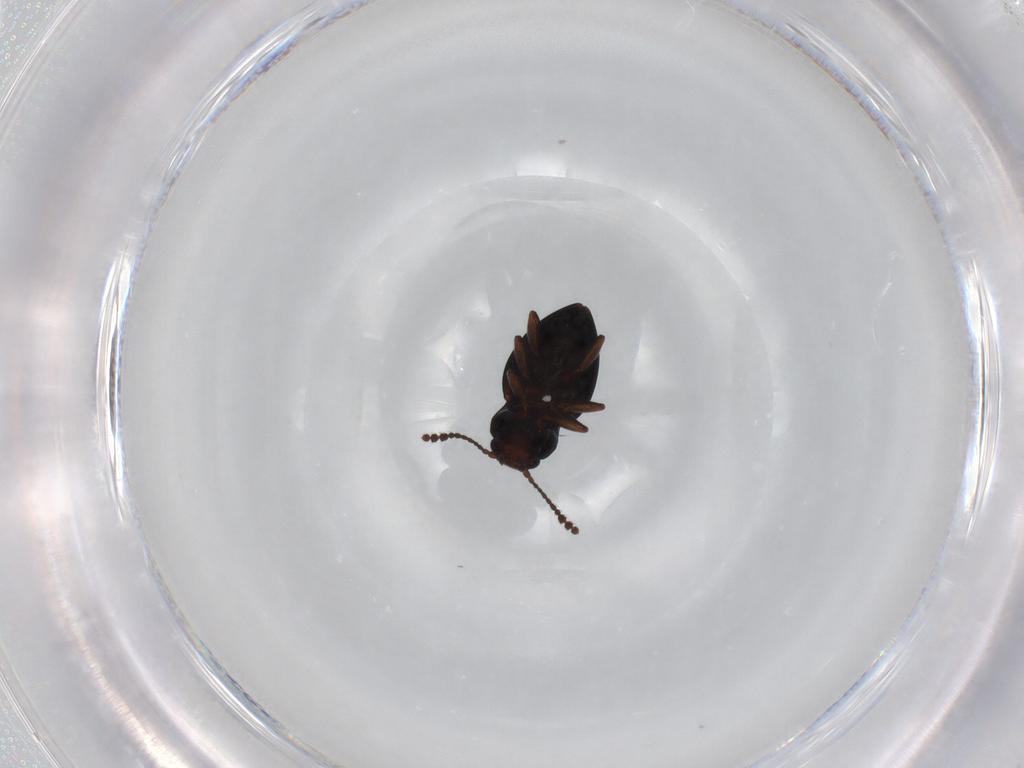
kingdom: Animalia
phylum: Arthropoda
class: Insecta
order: Coleoptera
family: Erotylidae
